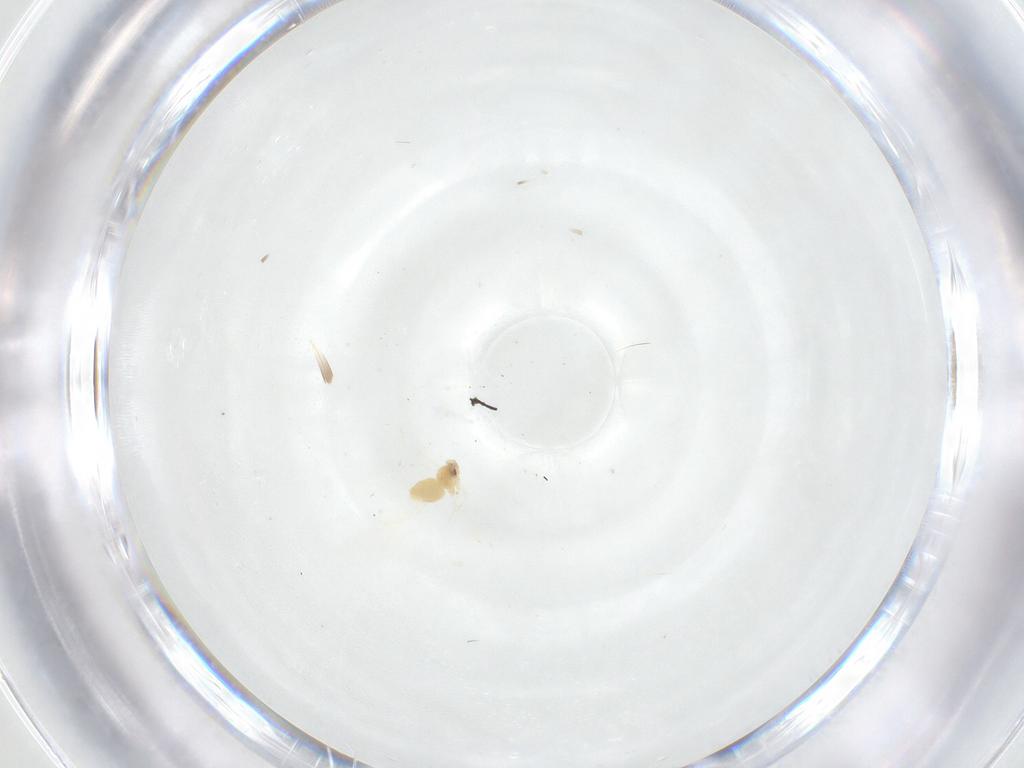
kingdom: Animalia
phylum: Arthropoda
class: Insecta
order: Hemiptera
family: Aleyrodidae
